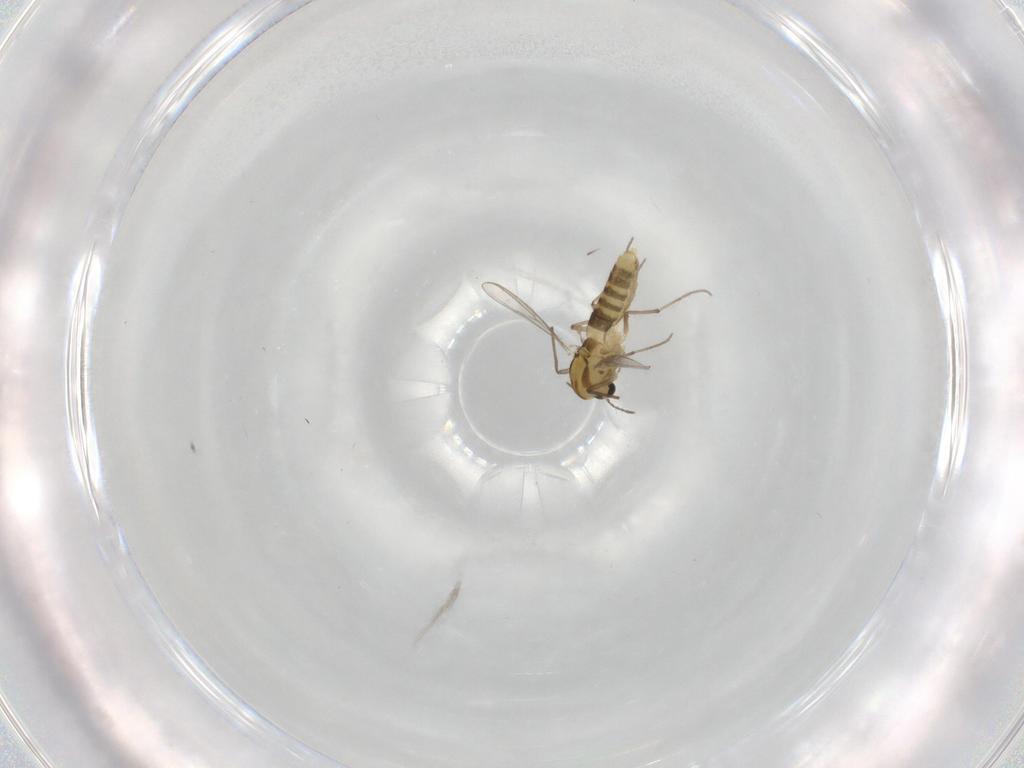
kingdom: Animalia
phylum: Arthropoda
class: Insecta
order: Diptera
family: Chironomidae
